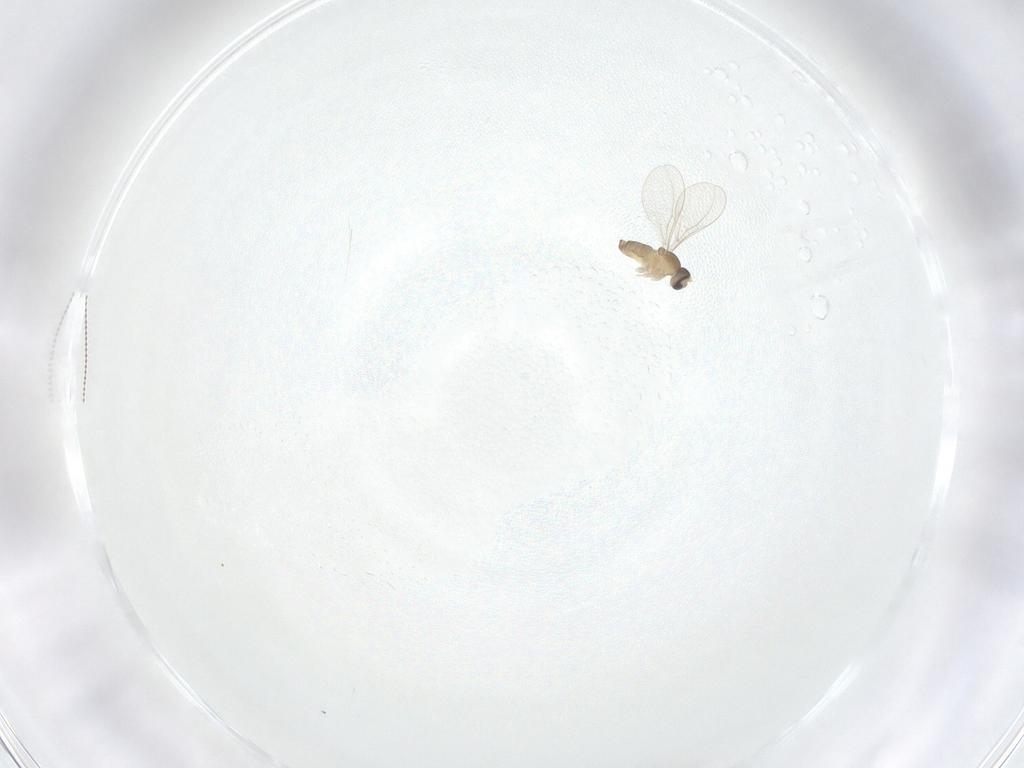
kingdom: Animalia
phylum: Arthropoda
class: Insecta
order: Diptera
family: Cecidomyiidae
